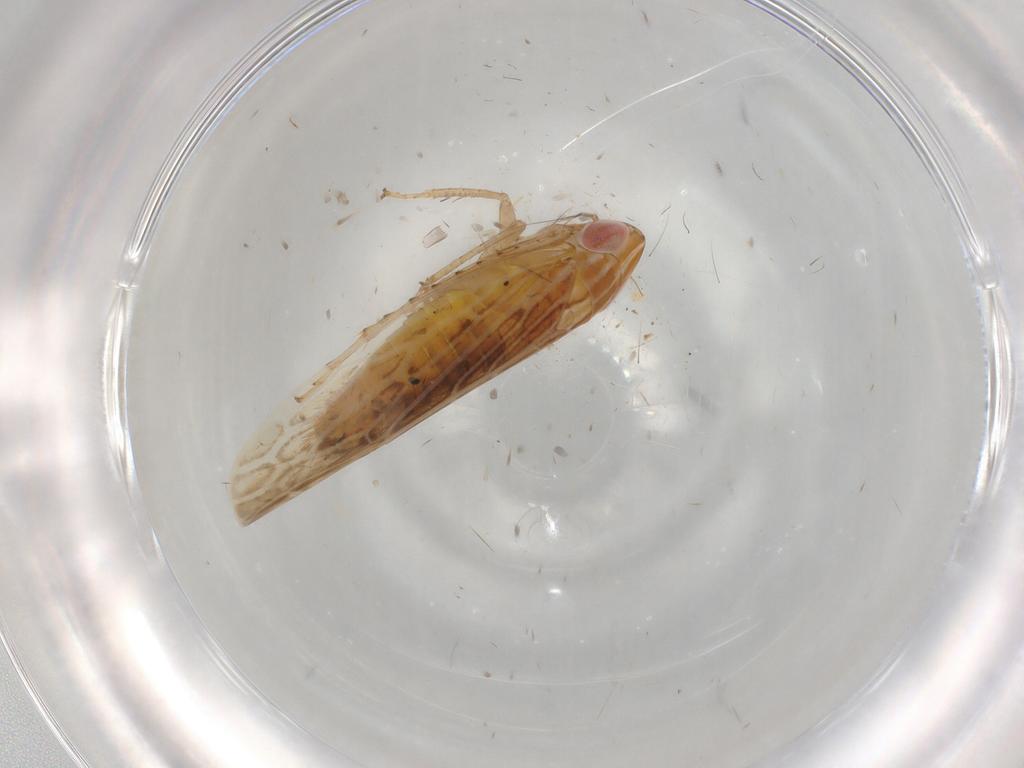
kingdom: Animalia
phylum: Arthropoda
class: Insecta
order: Hemiptera
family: Cicadellidae
